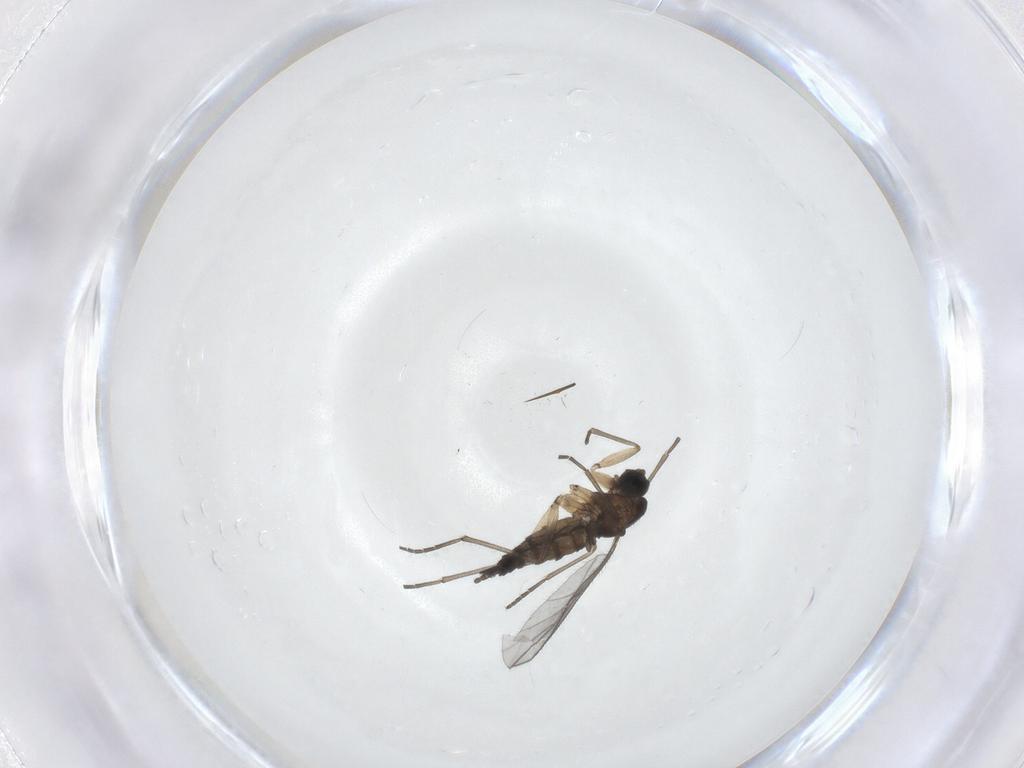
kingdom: Animalia
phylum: Arthropoda
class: Insecta
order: Diptera
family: Sciaridae
